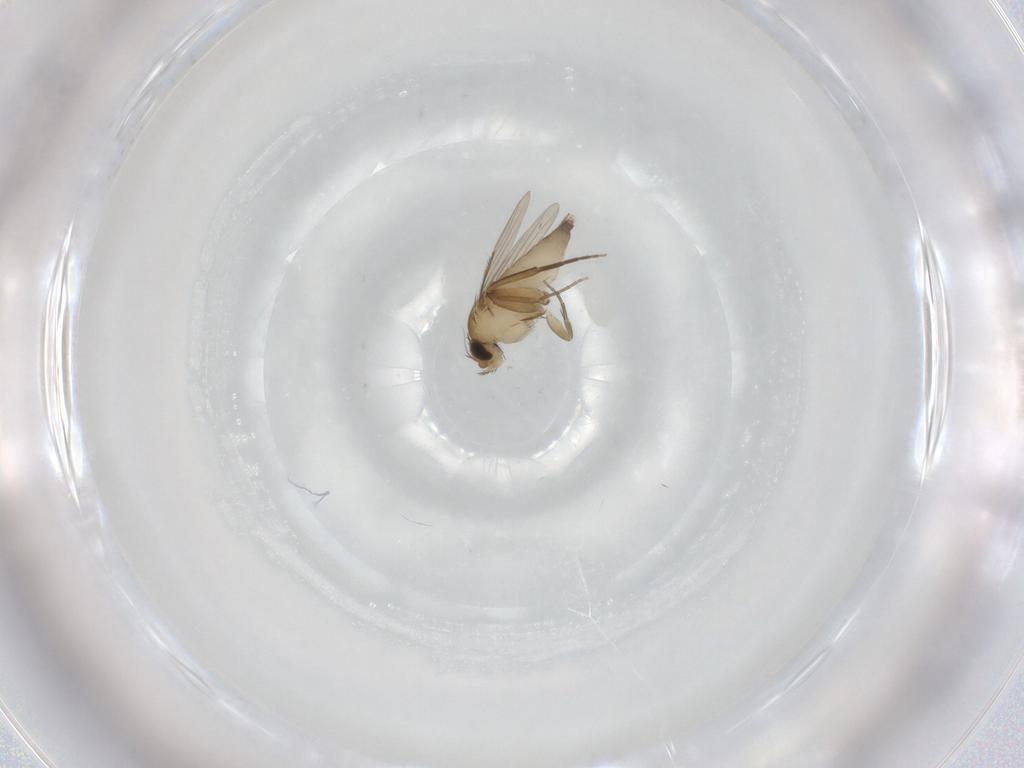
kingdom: Animalia
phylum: Arthropoda
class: Insecta
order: Diptera
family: Phoridae
